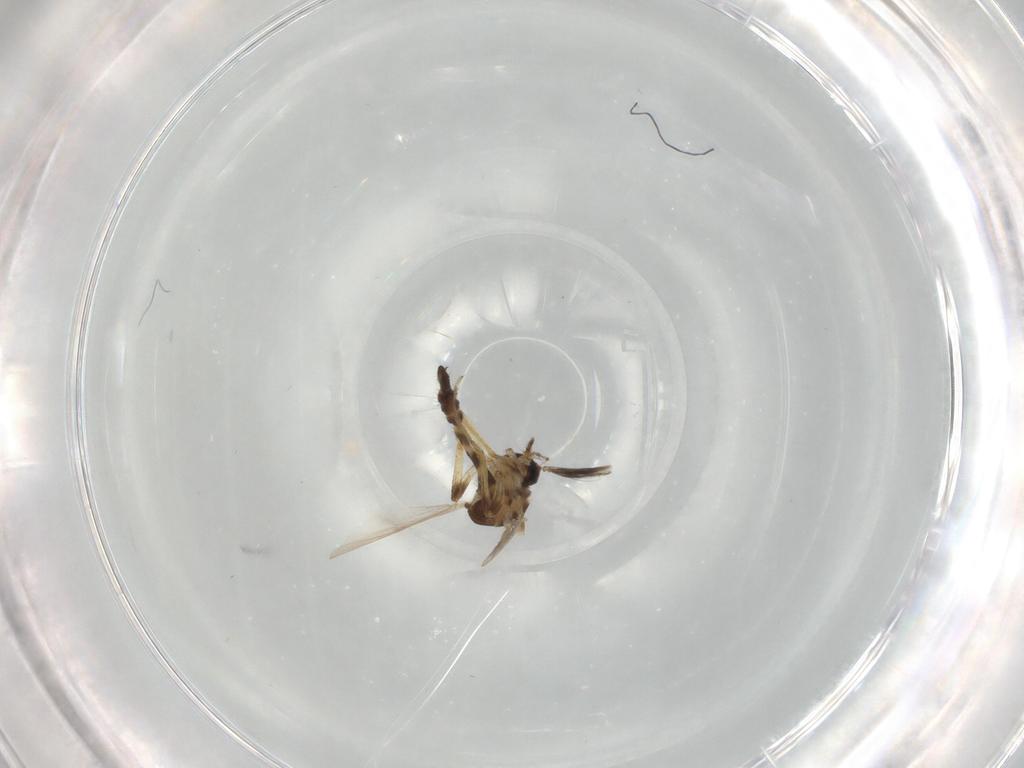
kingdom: Animalia
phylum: Arthropoda
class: Insecta
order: Diptera
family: Ceratopogonidae
